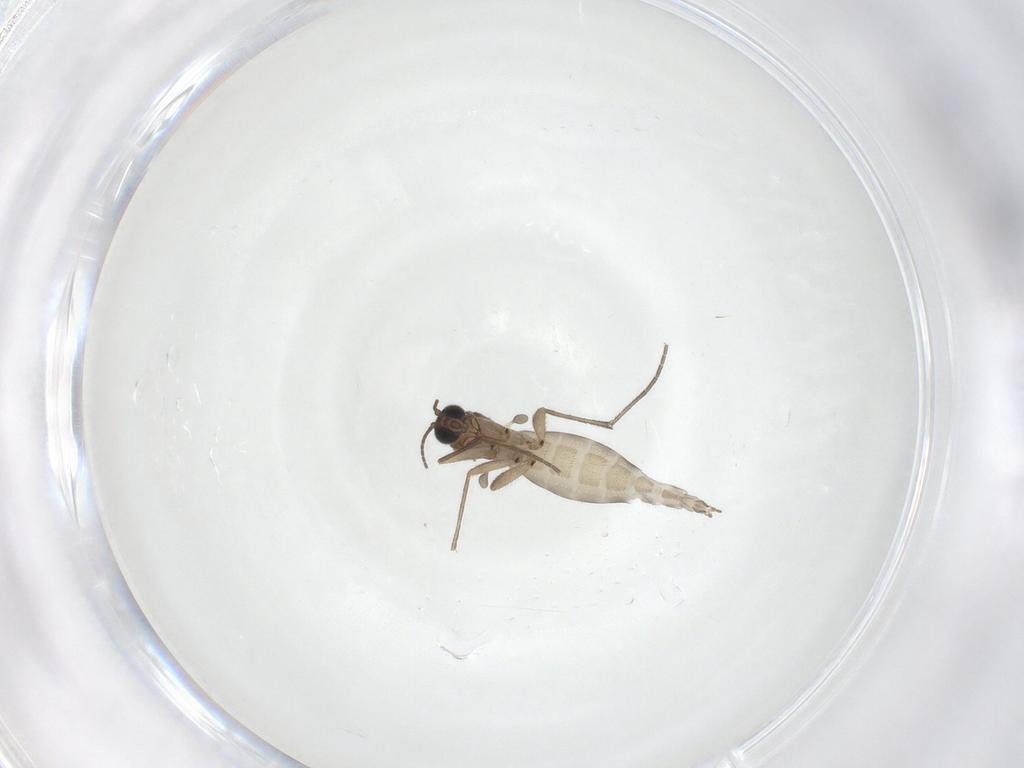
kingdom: Animalia
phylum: Arthropoda
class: Insecta
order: Diptera
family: Sciaridae
